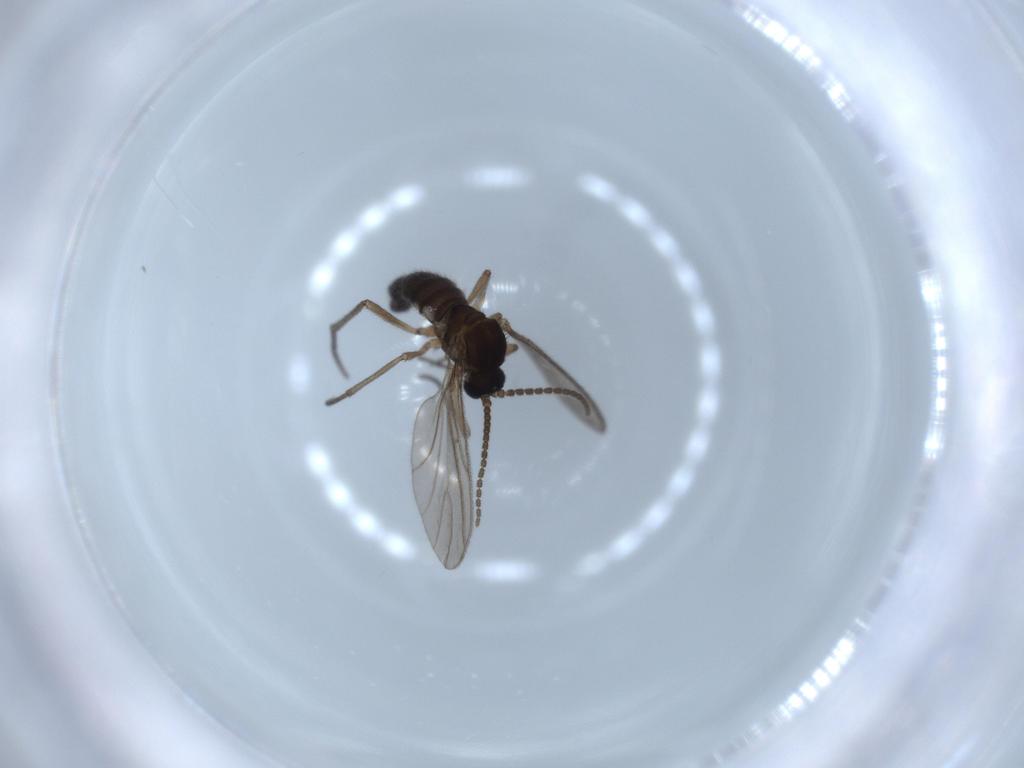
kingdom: Animalia
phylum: Arthropoda
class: Insecta
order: Diptera
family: Sciaridae
